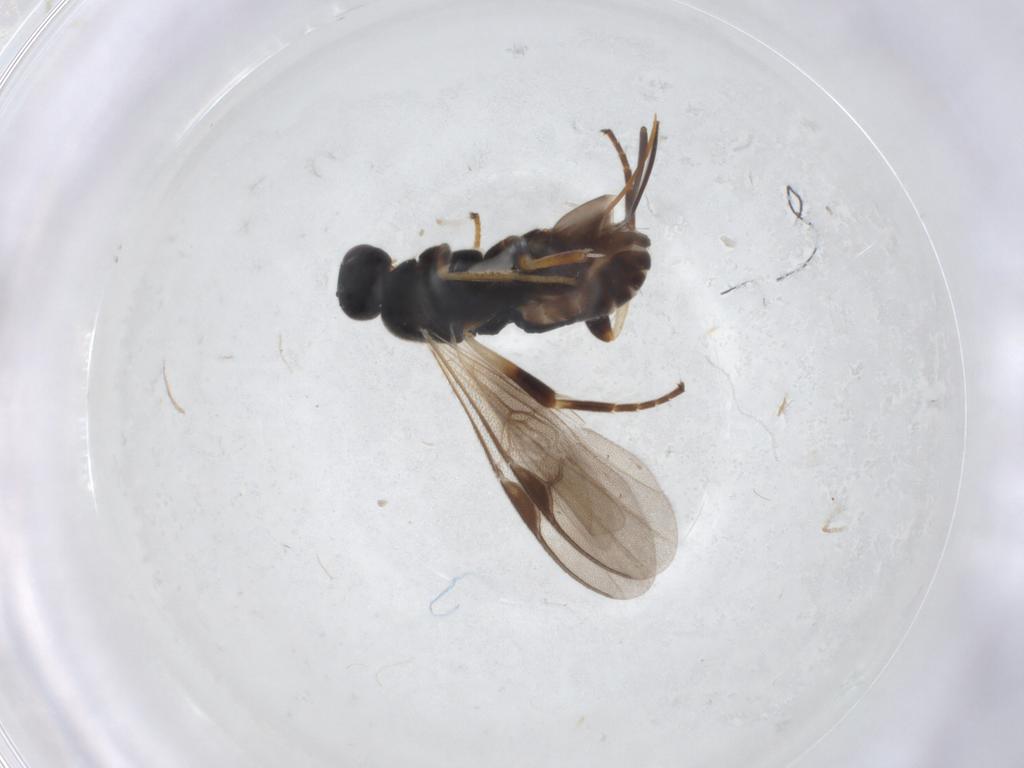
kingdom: Animalia
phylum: Arthropoda
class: Insecta
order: Hymenoptera
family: Braconidae
